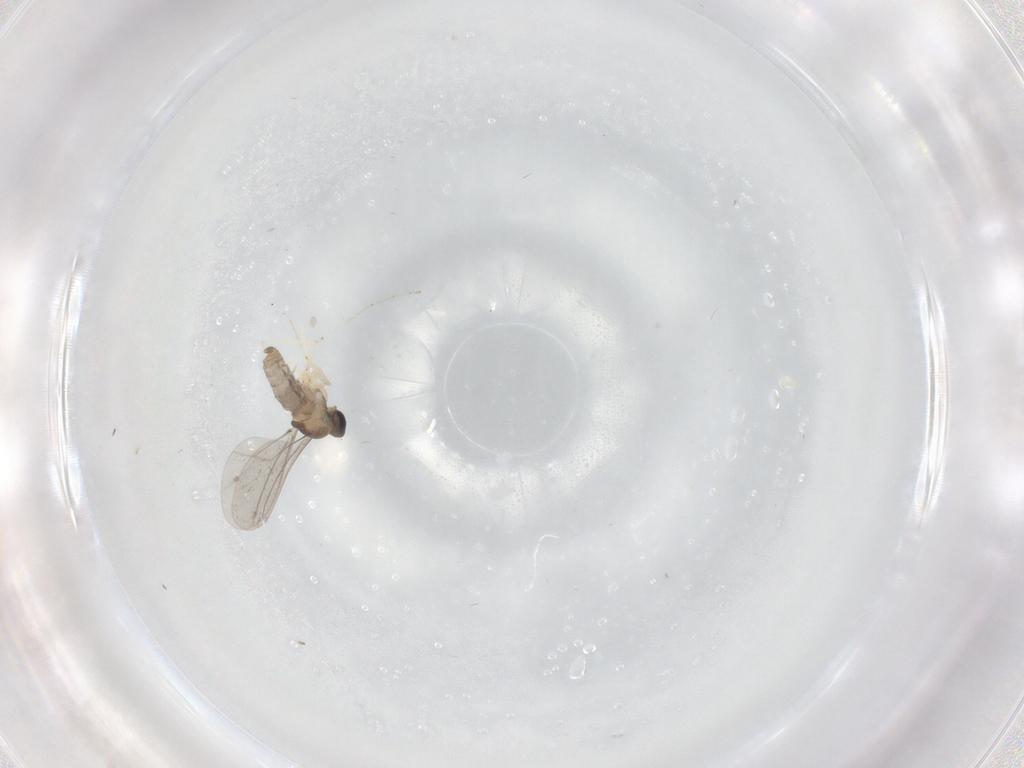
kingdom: Animalia
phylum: Arthropoda
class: Insecta
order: Diptera
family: Cecidomyiidae
